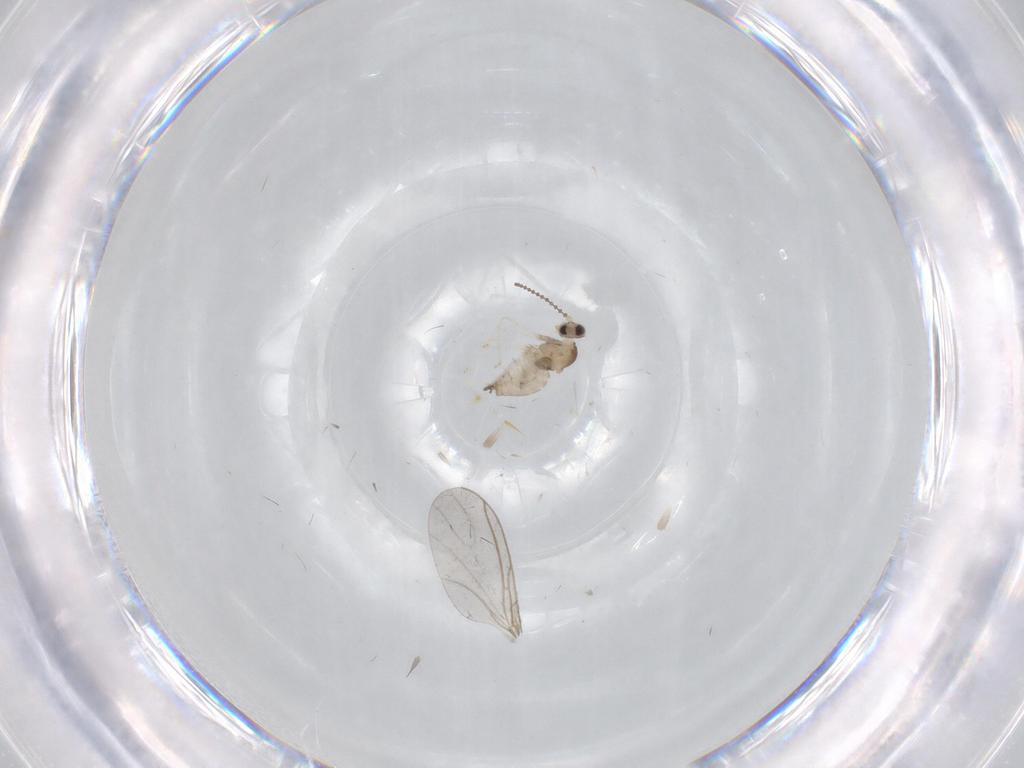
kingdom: Animalia
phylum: Arthropoda
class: Insecta
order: Diptera
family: Cecidomyiidae
